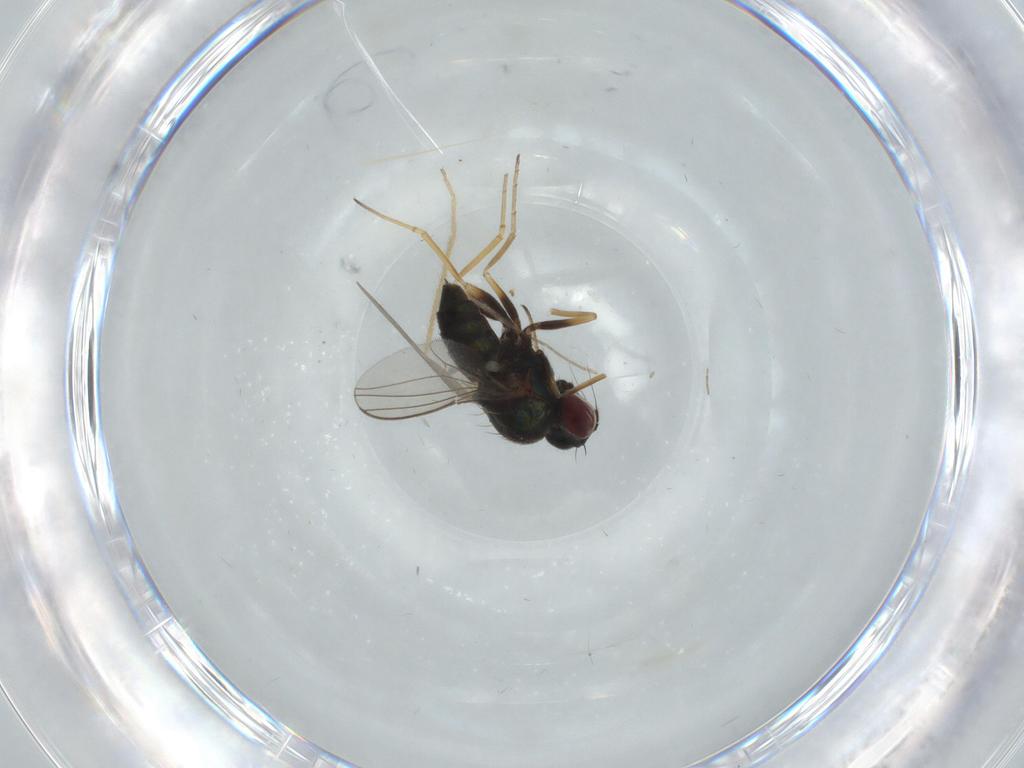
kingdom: Animalia
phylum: Arthropoda
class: Insecta
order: Diptera
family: Dolichopodidae
